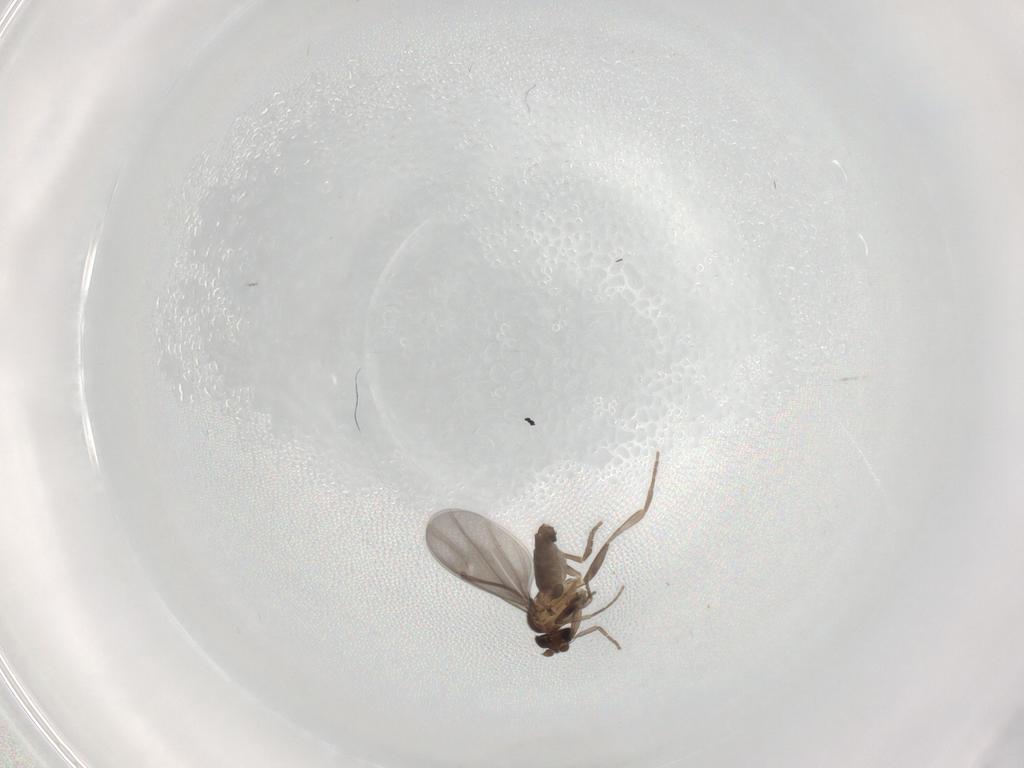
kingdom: Animalia
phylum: Arthropoda
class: Insecta
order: Diptera
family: Phoridae
